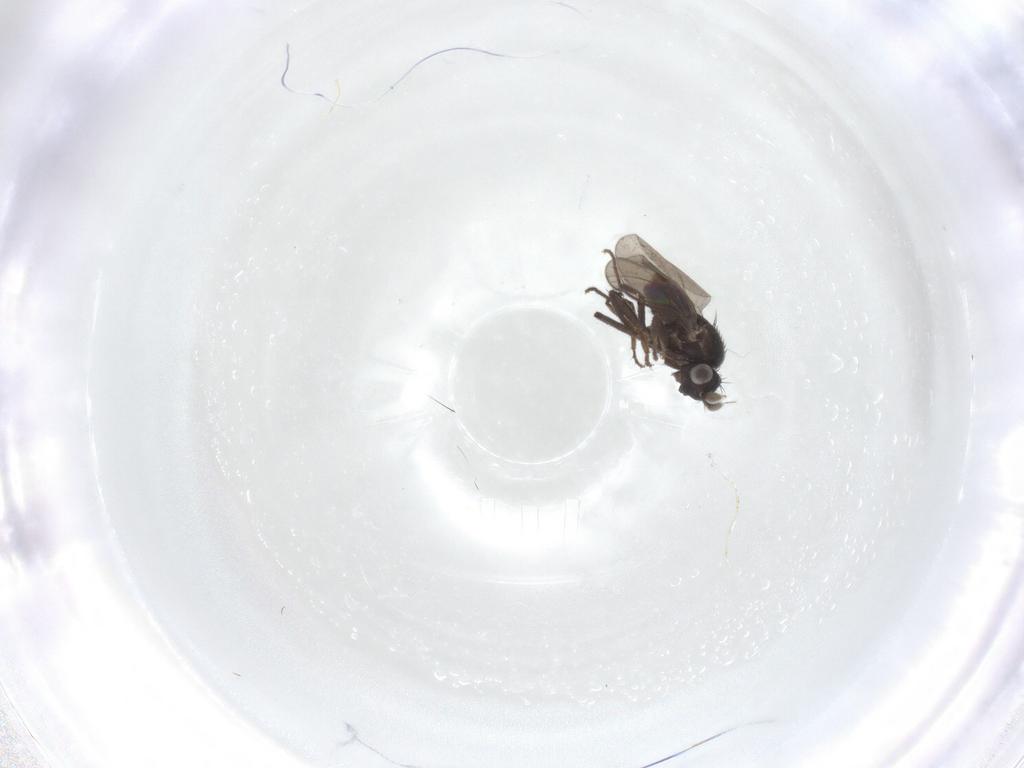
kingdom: Animalia
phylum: Arthropoda
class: Insecta
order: Diptera
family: Sphaeroceridae
